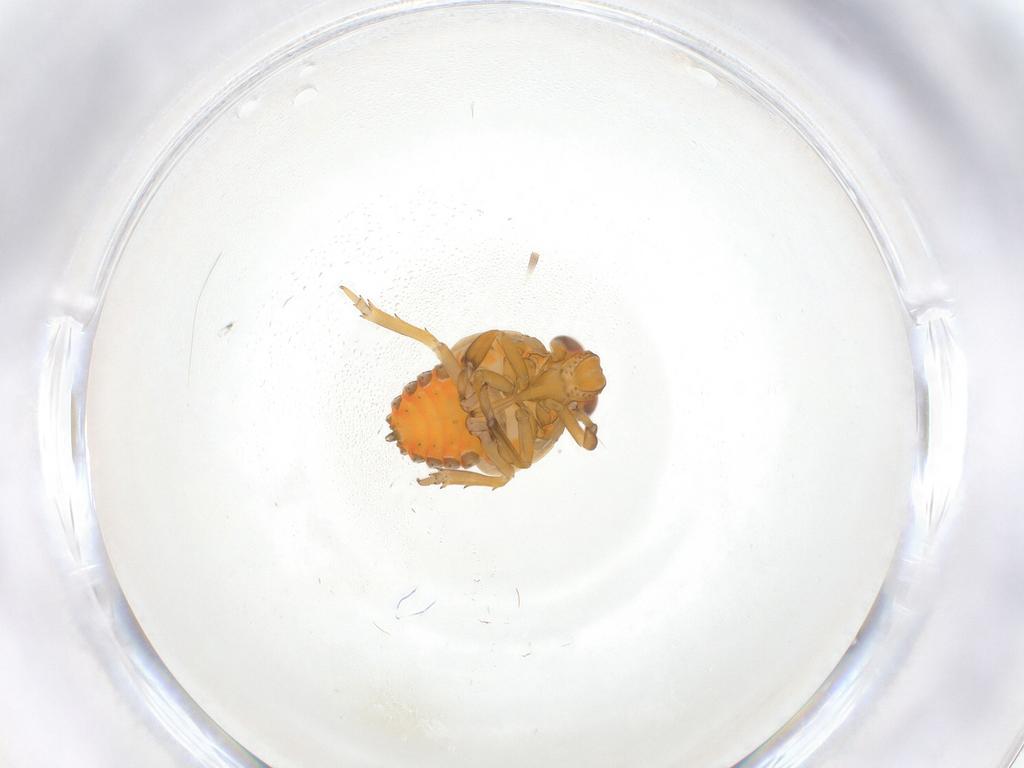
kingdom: Animalia
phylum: Arthropoda
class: Insecta
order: Hemiptera
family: Issidae
